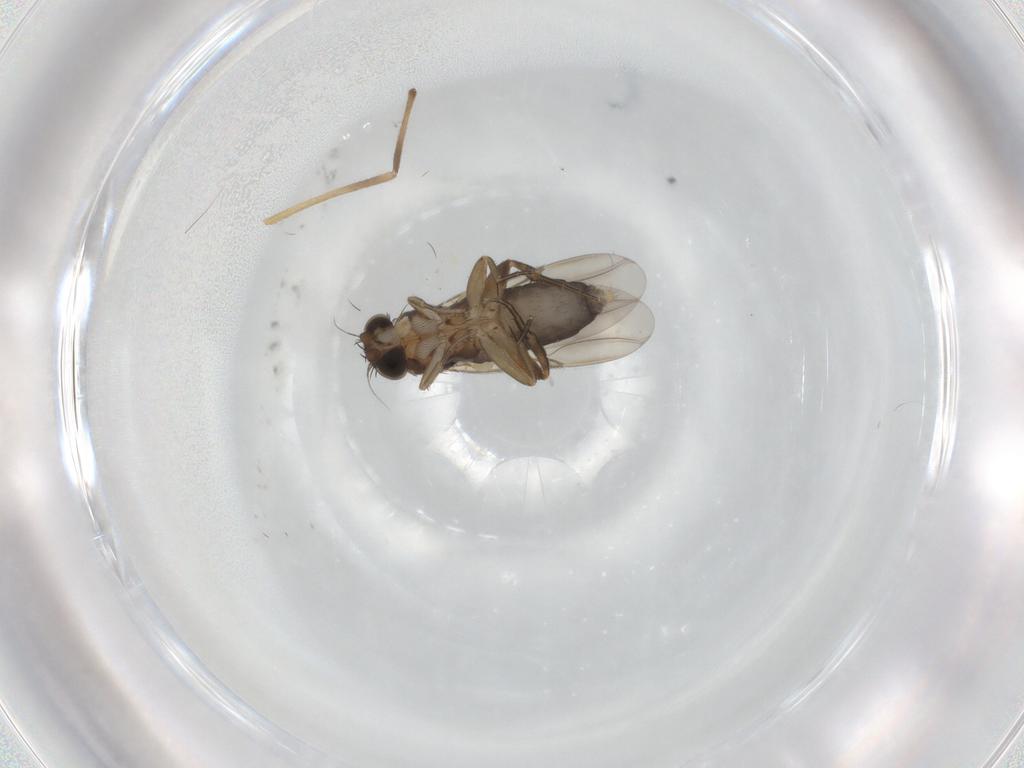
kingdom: Animalia
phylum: Arthropoda
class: Insecta
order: Diptera
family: Phoridae
